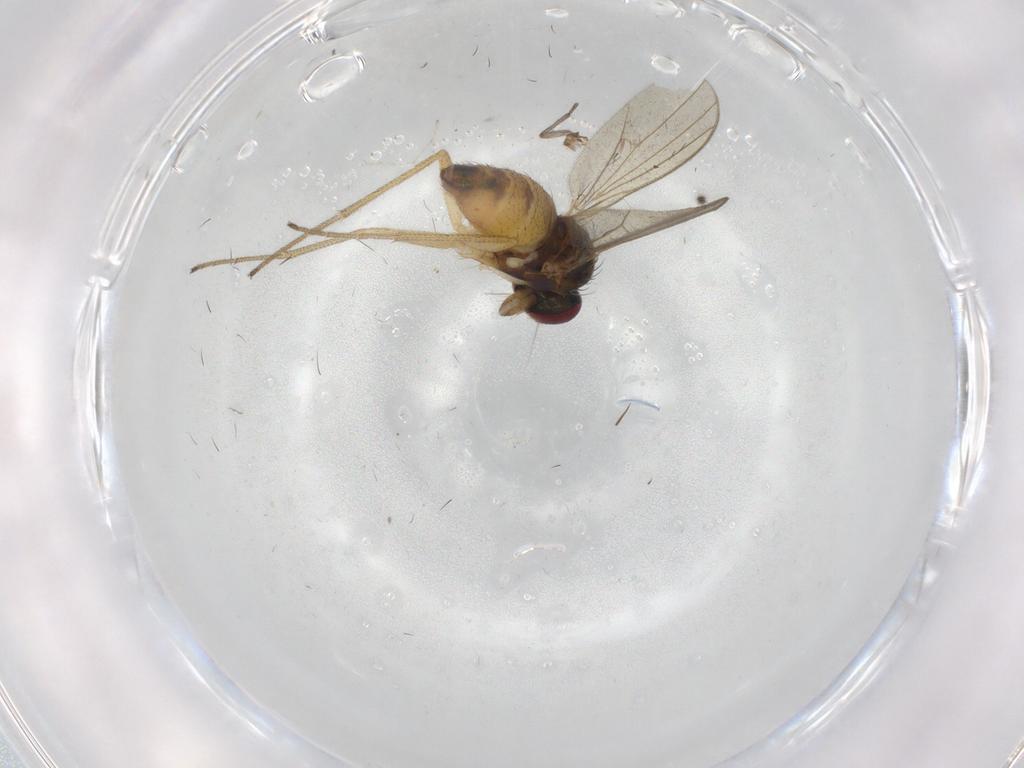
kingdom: Animalia
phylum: Arthropoda
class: Insecta
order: Diptera
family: Dolichopodidae
